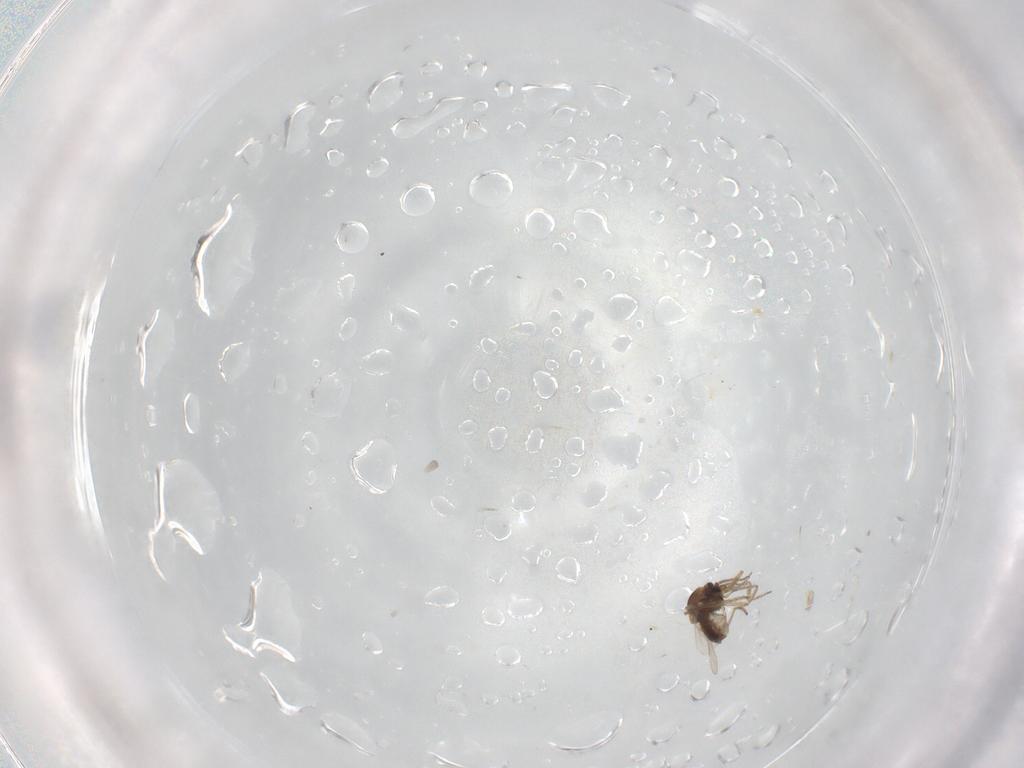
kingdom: Animalia
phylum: Arthropoda
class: Insecta
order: Diptera
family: Ceratopogonidae
